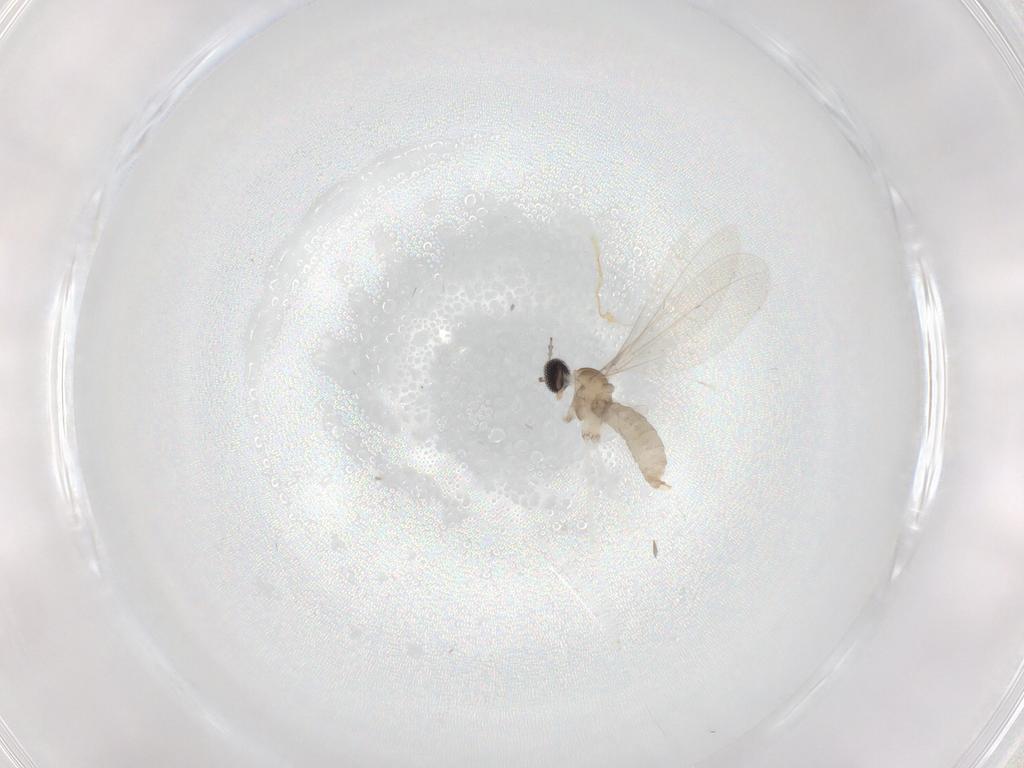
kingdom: Animalia
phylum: Arthropoda
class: Insecta
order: Diptera
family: Cecidomyiidae
